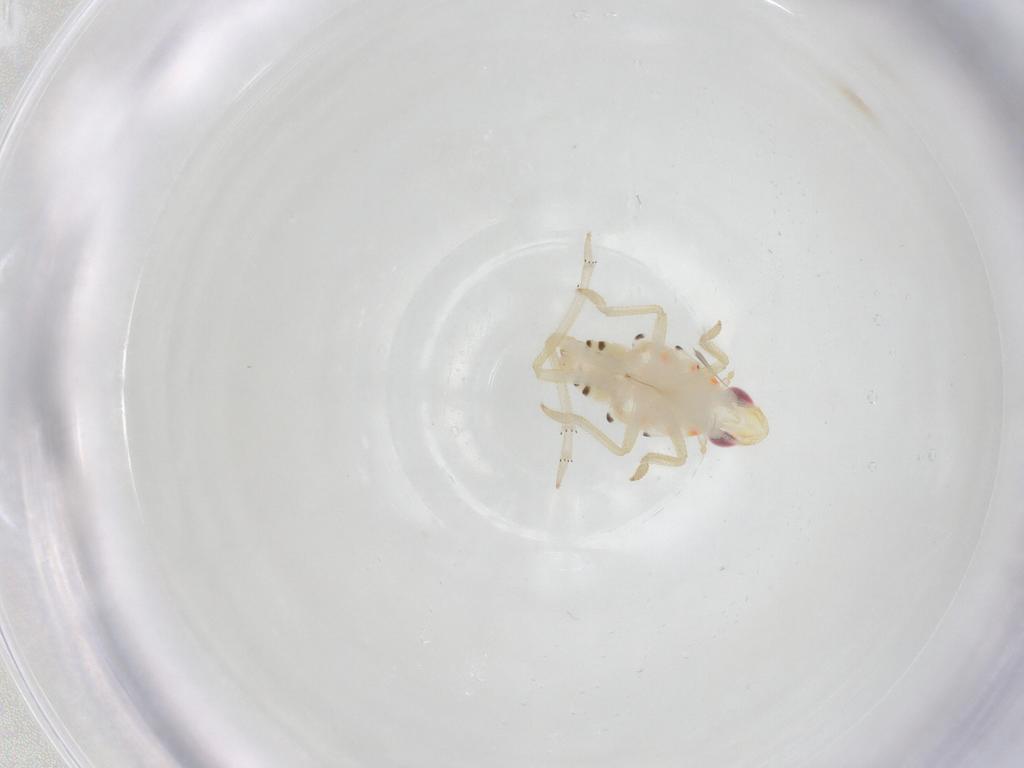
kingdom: Animalia
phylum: Arthropoda
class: Insecta
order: Hemiptera
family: Tropiduchidae
